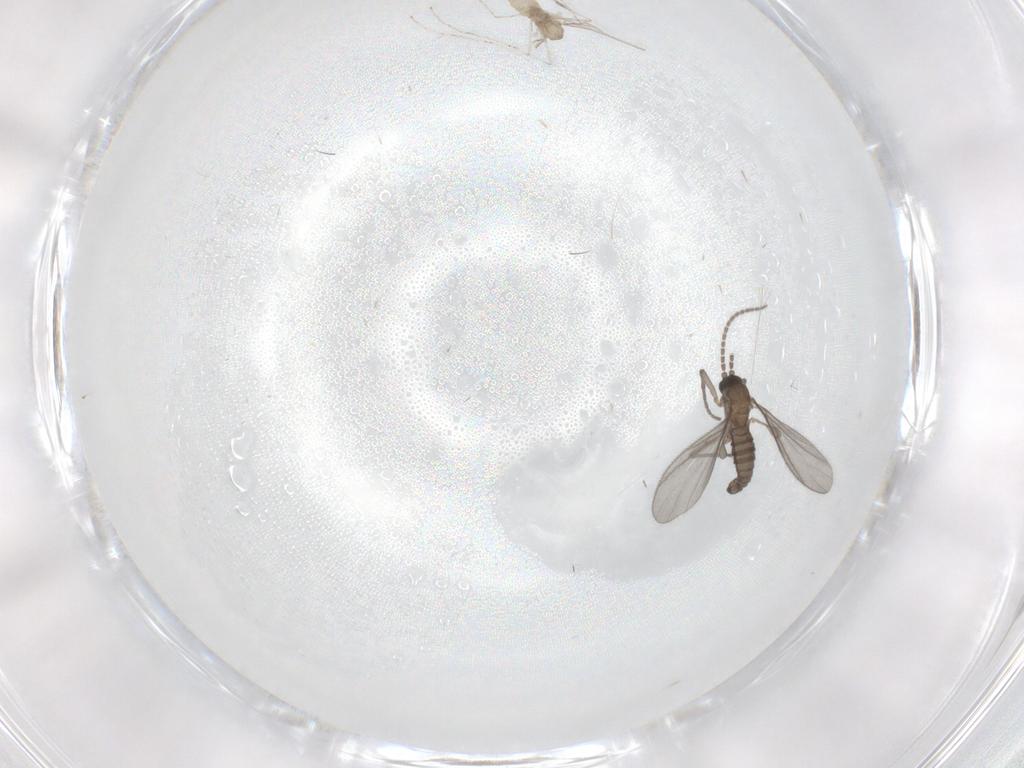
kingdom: Animalia
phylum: Arthropoda
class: Insecta
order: Diptera
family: Sciaridae
